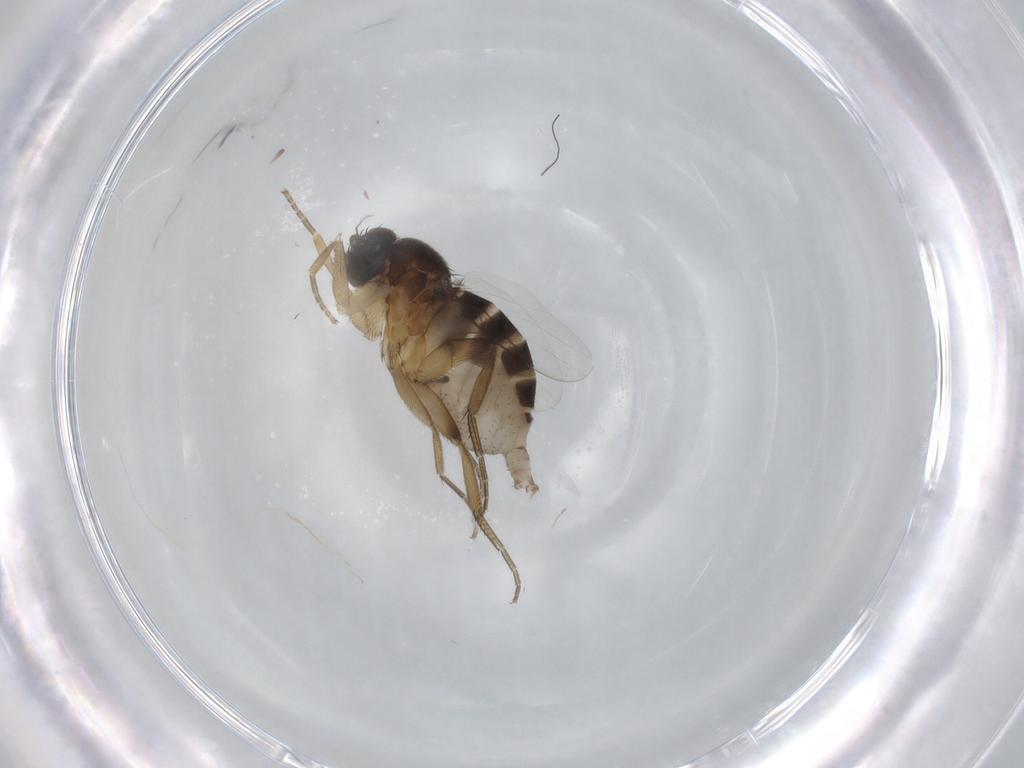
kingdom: Animalia
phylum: Arthropoda
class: Insecta
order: Diptera
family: Phoridae
